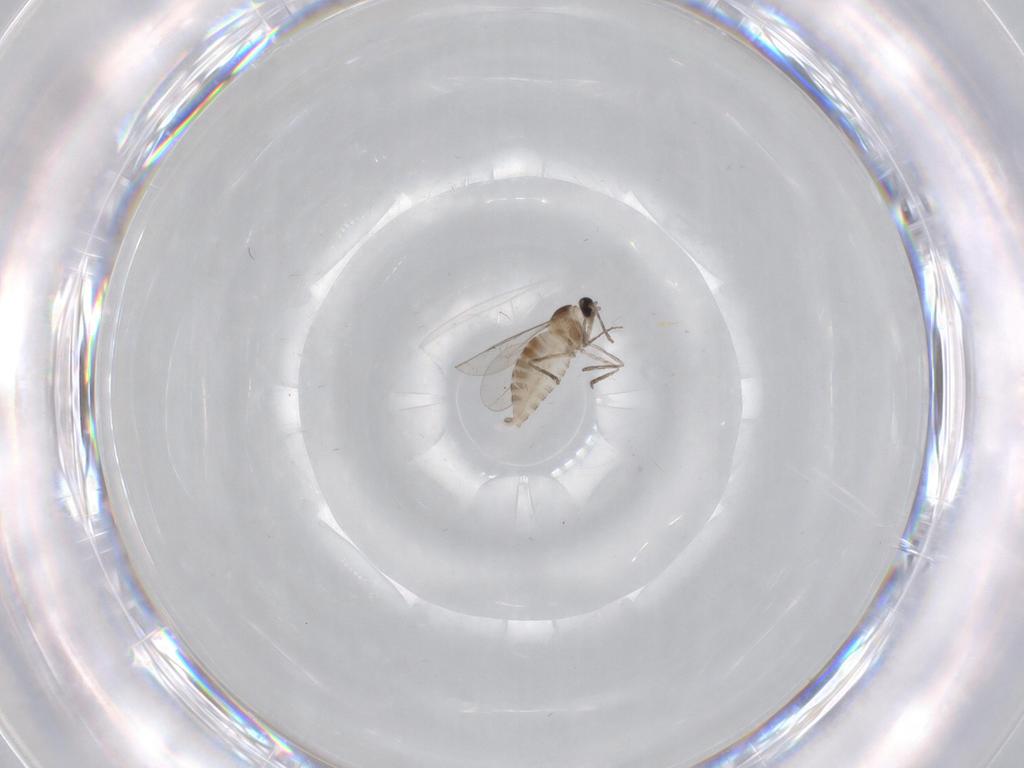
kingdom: Animalia
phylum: Arthropoda
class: Insecta
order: Diptera
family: Cecidomyiidae
